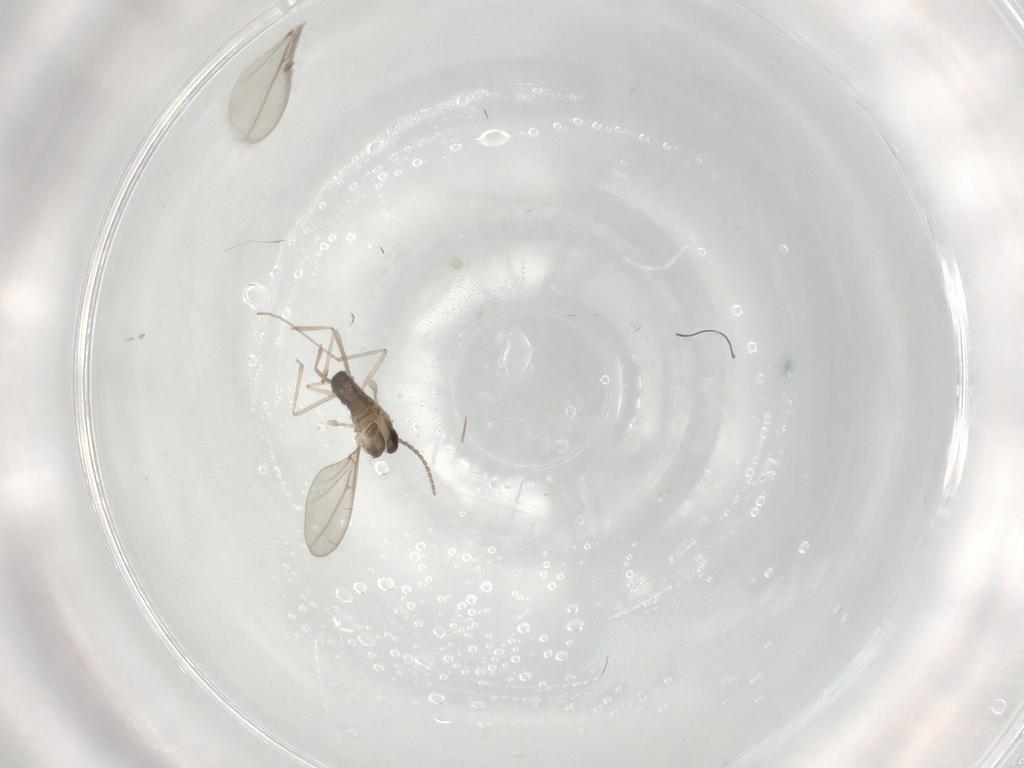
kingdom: Animalia
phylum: Arthropoda
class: Insecta
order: Diptera
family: Cecidomyiidae
